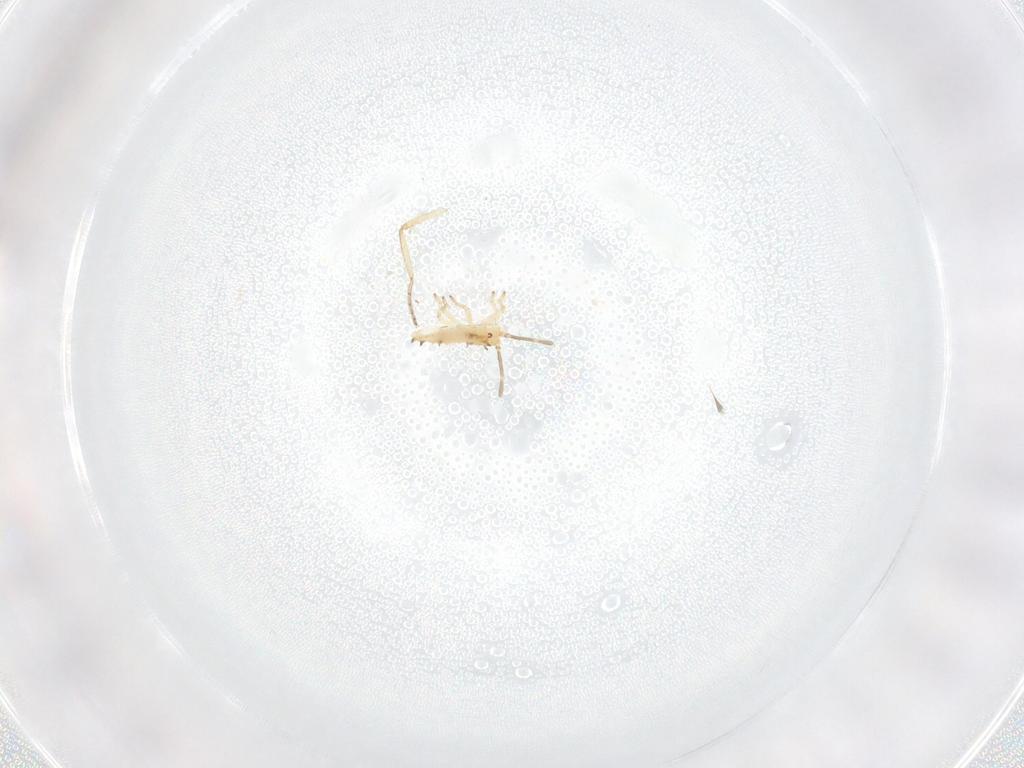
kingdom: Animalia
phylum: Arthropoda
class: Insecta
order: Hemiptera
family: Tingidae
